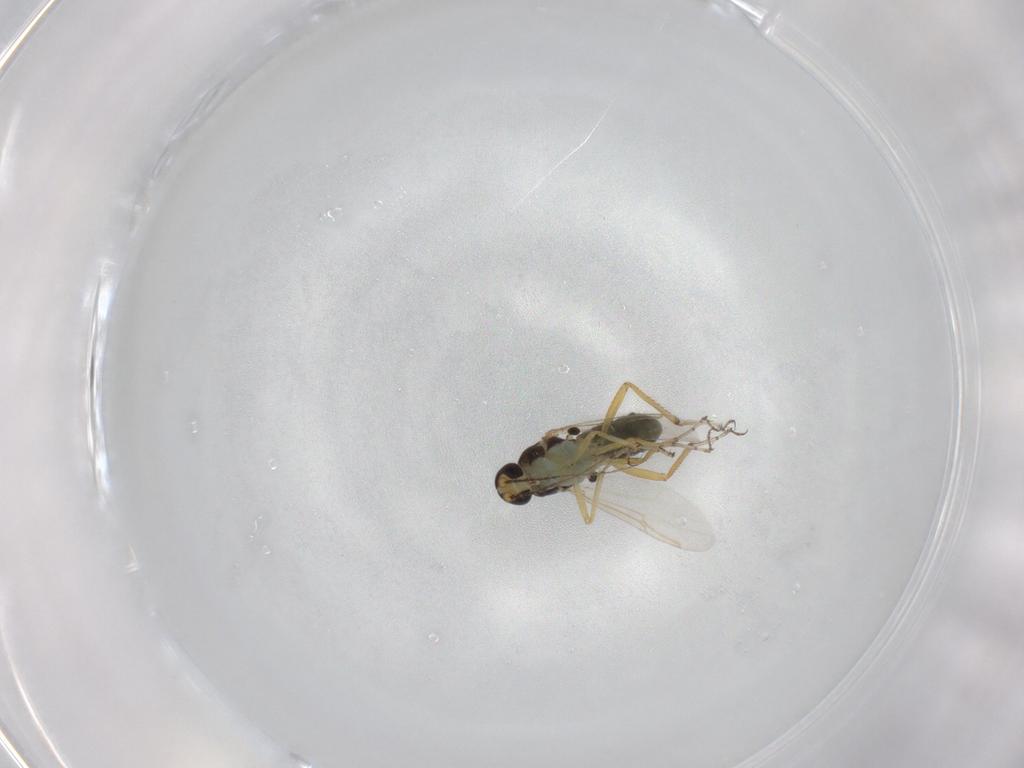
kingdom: Animalia
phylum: Arthropoda
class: Insecta
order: Diptera
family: Ceratopogonidae
